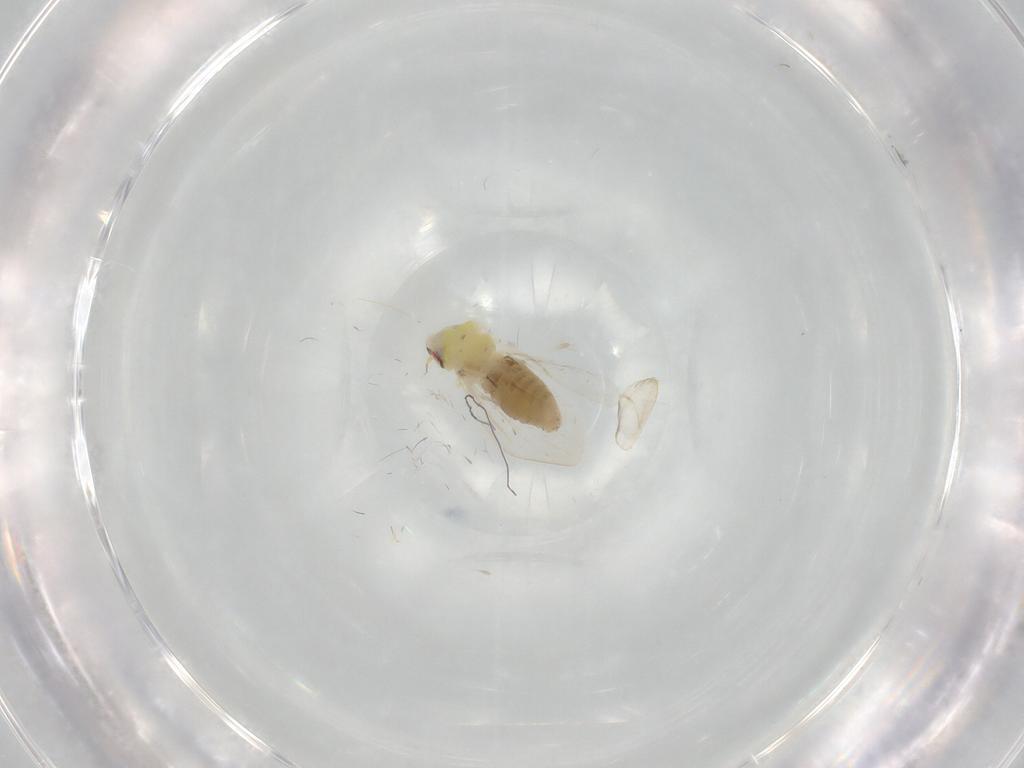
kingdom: Animalia
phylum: Arthropoda
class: Insecta
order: Hemiptera
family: Aleyrodidae
